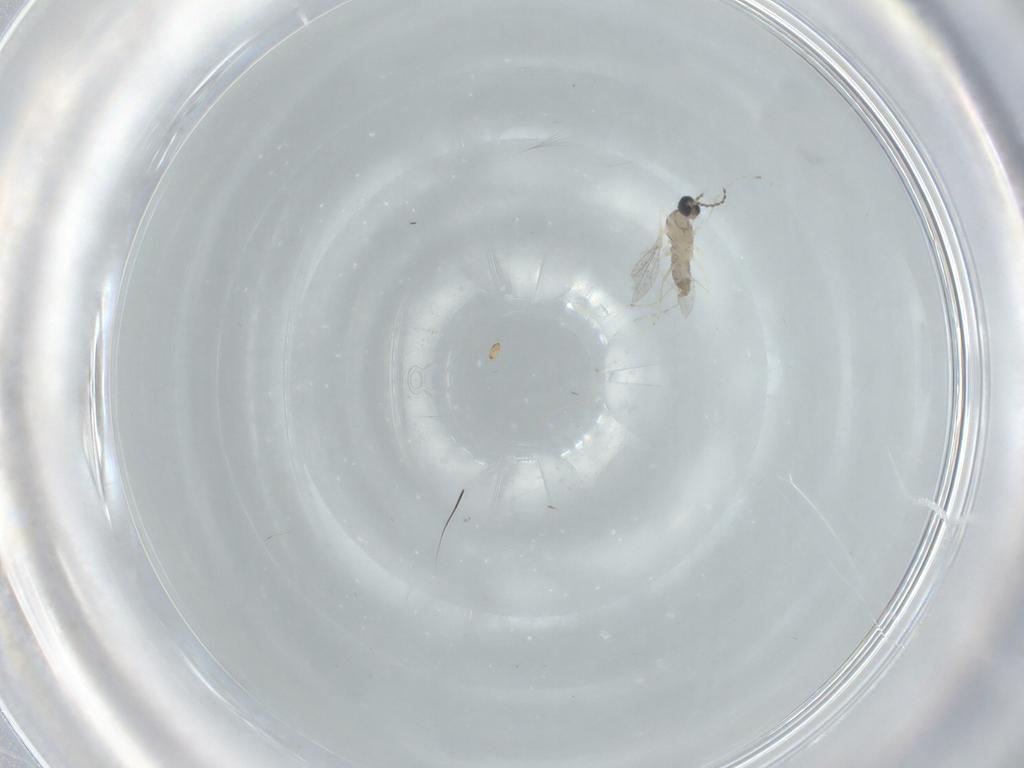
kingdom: Animalia
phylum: Arthropoda
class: Insecta
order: Diptera
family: Cecidomyiidae
